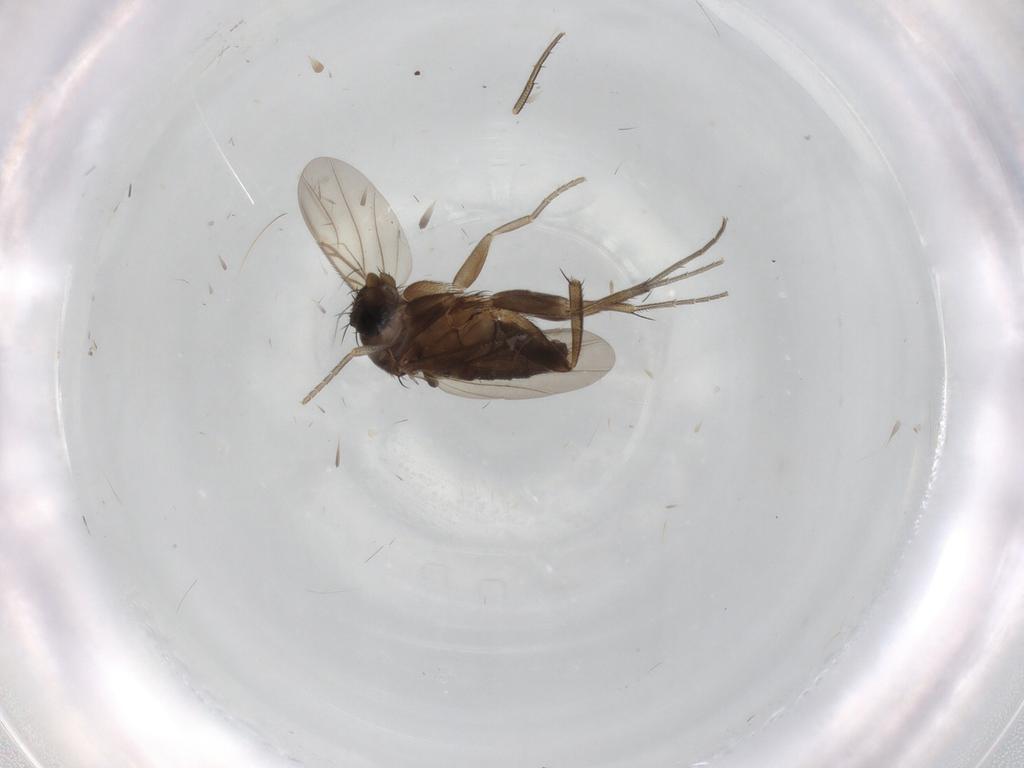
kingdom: Animalia
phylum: Arthropoda
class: Insecta
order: Diptera
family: Phoridae
